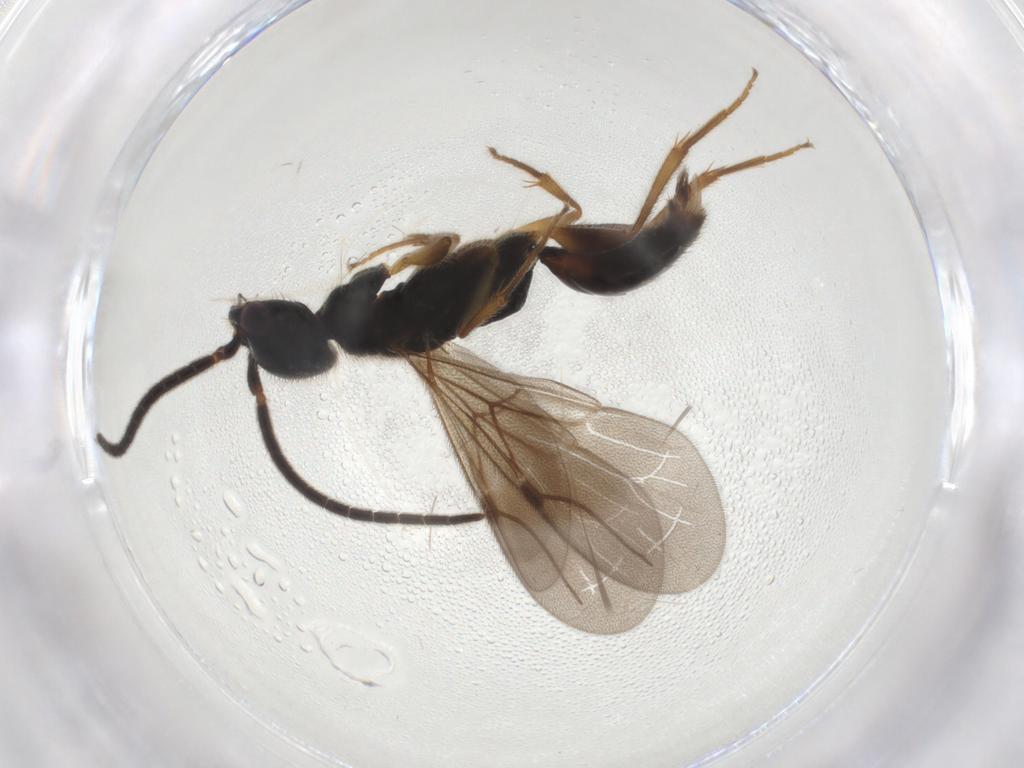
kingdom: Animalia
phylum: Arthropoda
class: Insecta
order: Hymenoptera
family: Bethylidae
